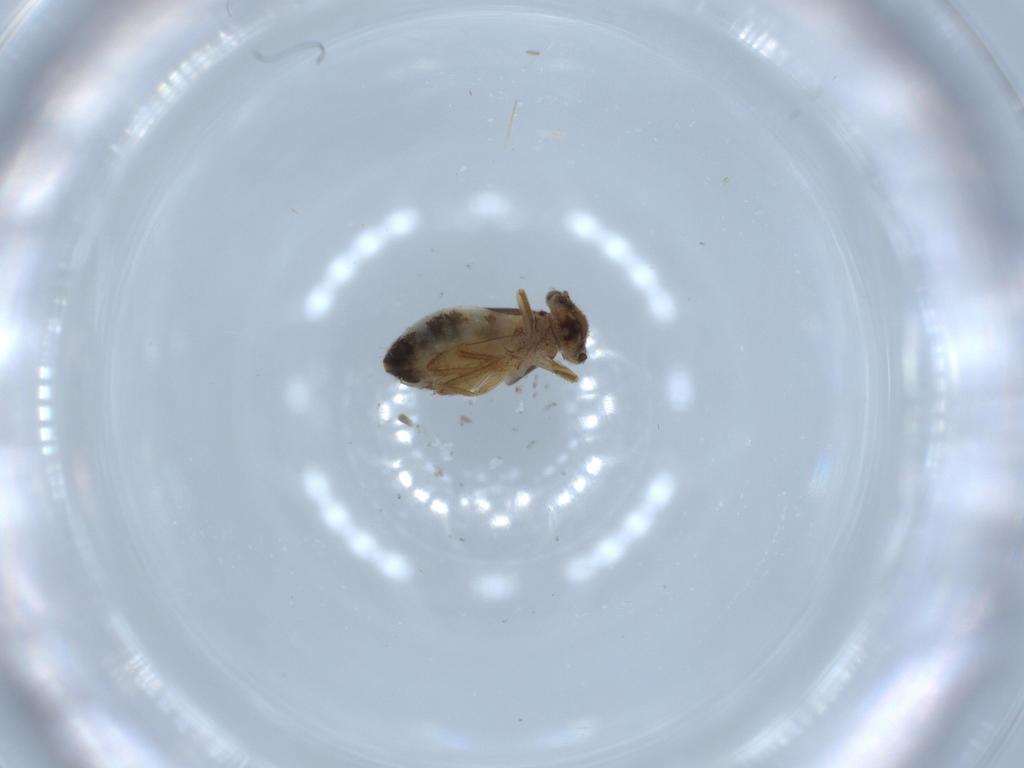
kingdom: Animalia
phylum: Arthropoda
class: Insecta
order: Psocodea
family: Lepidopsocidae
